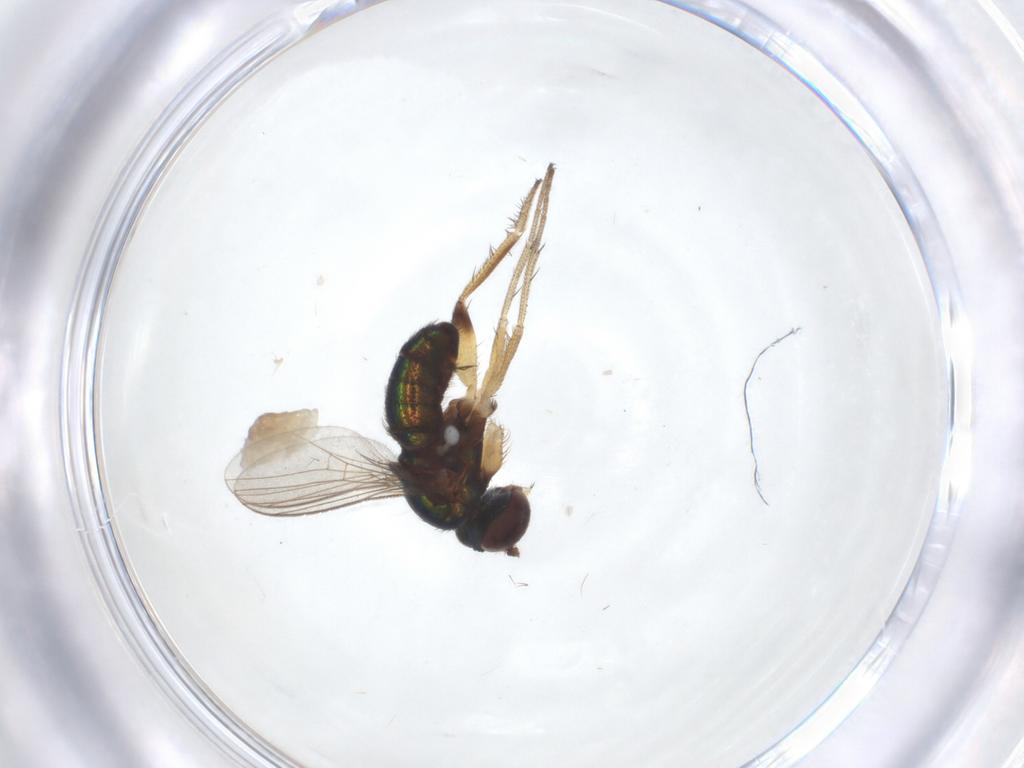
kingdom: Animalia
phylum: Arthropoda
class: Insecta
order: Diptera
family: Dolichopodidae
